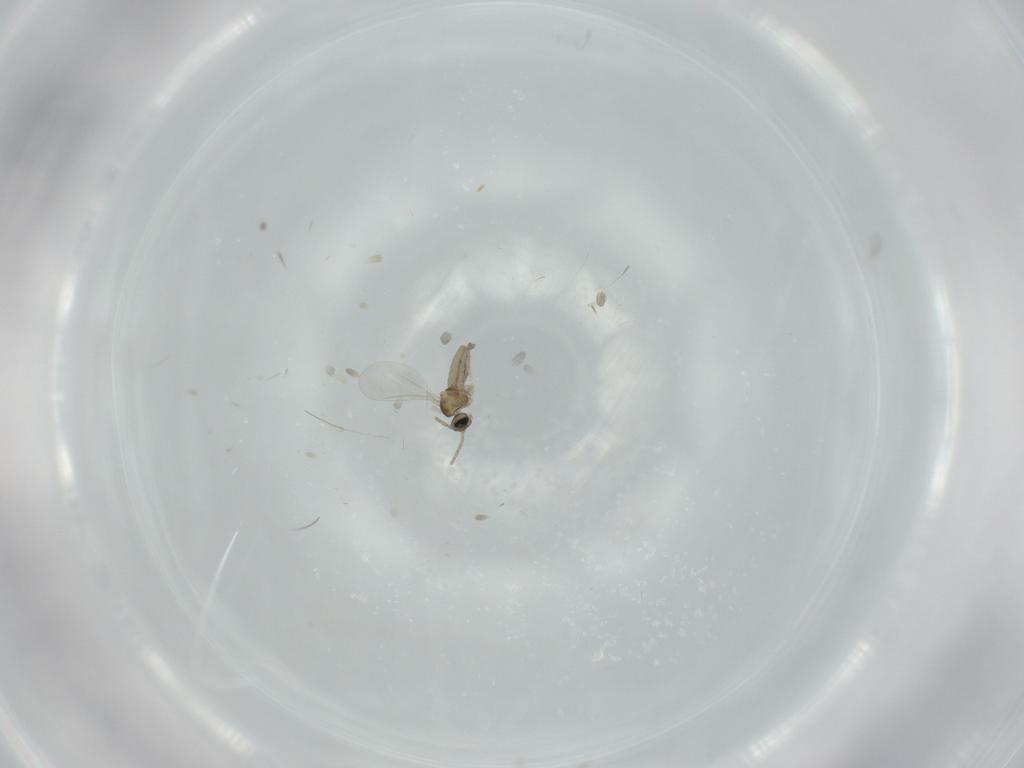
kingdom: Animalia
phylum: Arthropoda
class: Insecta
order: Diptera
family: Cecidomyiidae
